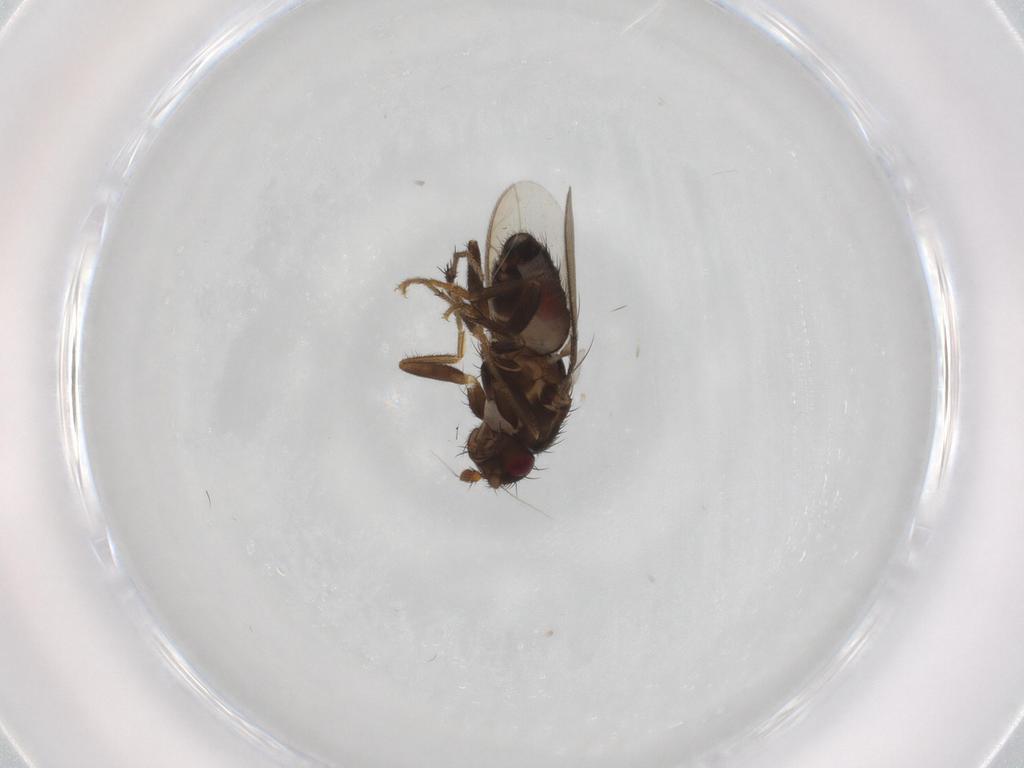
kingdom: Animalia
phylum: Arthropoda
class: Insecta
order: Diptera
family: Sphaeroceridae
